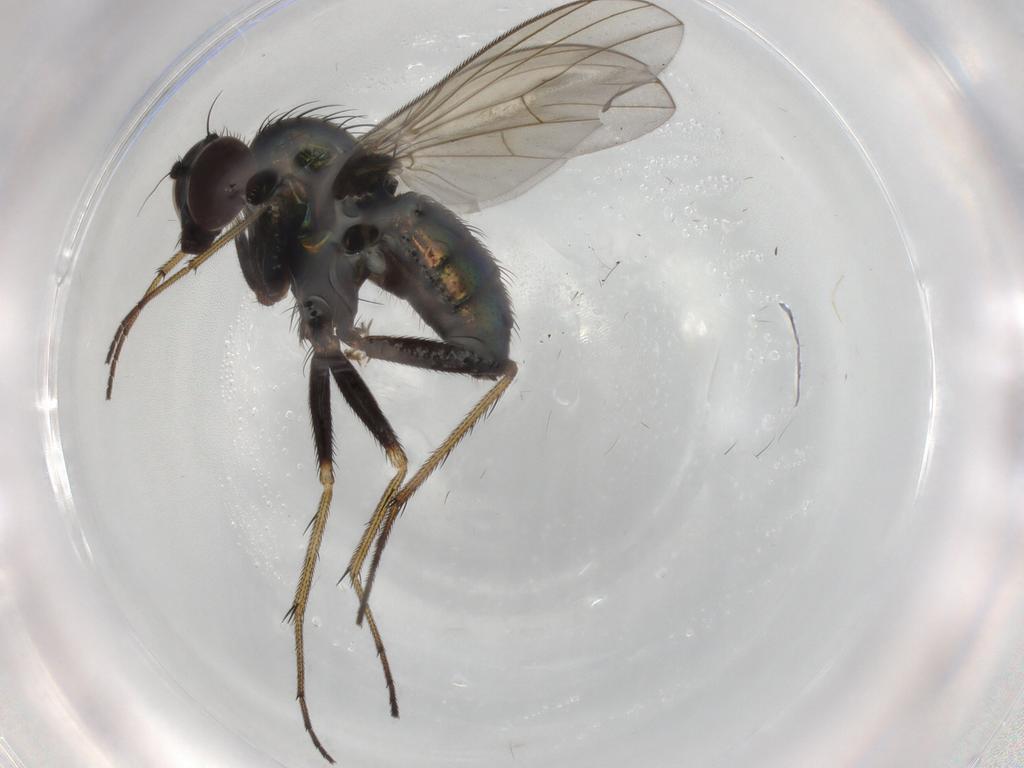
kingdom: Animalia
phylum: Arthropoda
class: Insecta
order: Diptera
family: Dolichopodidae
